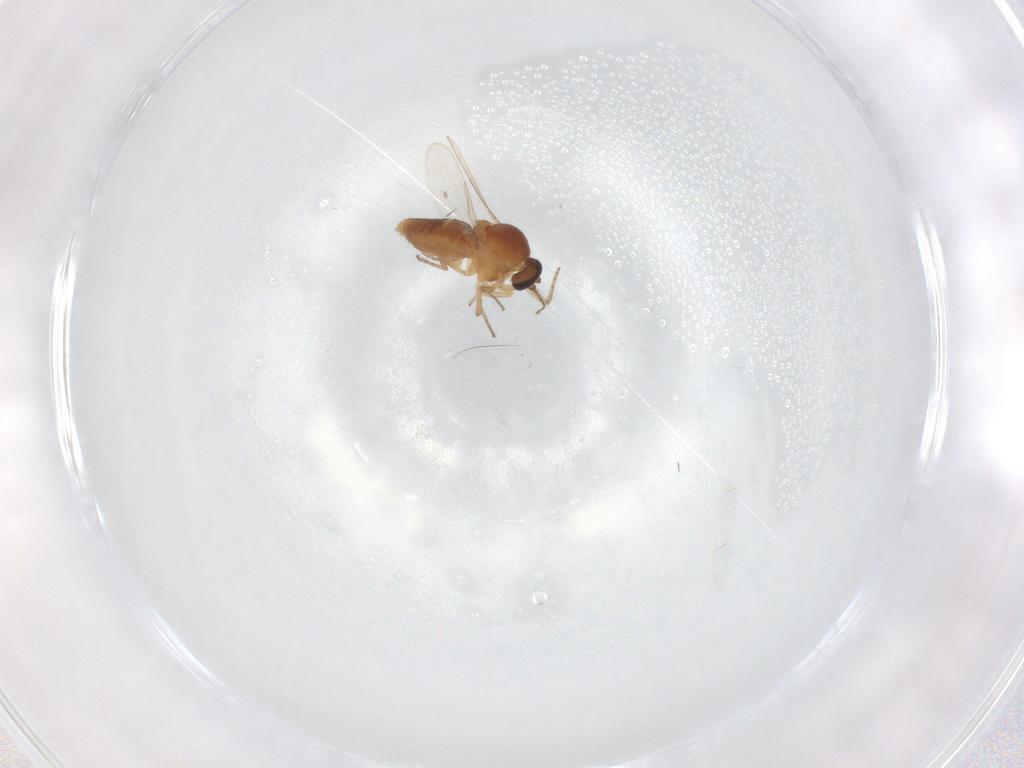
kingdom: Animalia
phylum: Arthropoda
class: Insecta
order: Diptera
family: Ceratopogonidae
